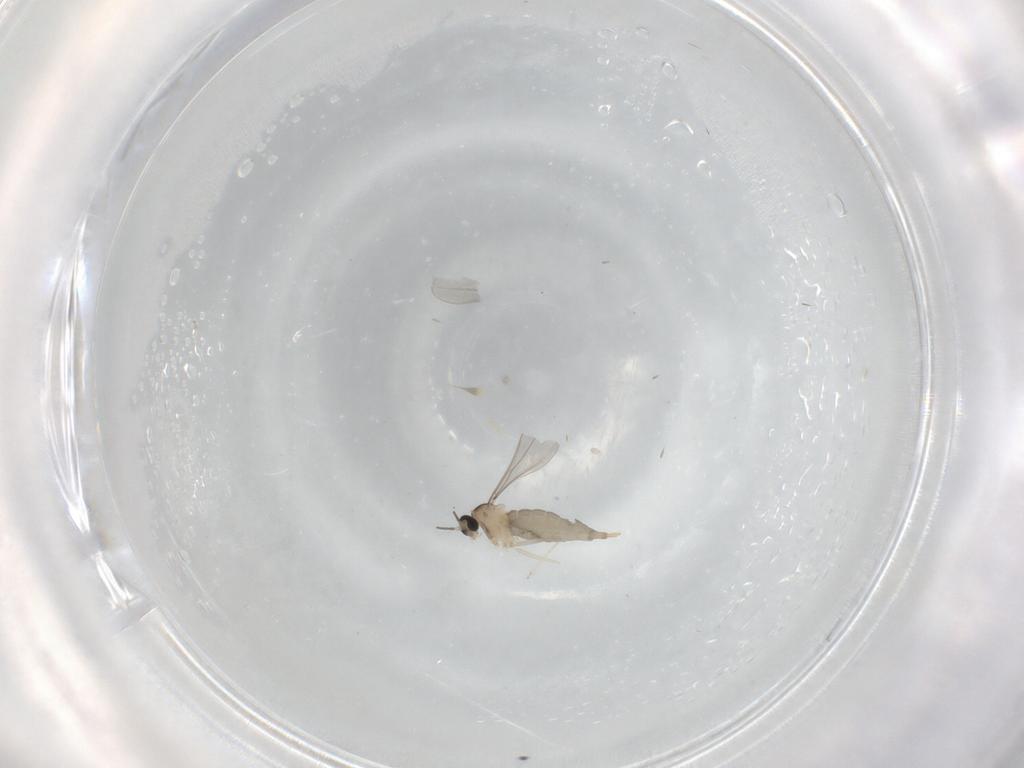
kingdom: Animalia
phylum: Arthropoda
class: Insecta
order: Diptera
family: Cecidomyiidae
